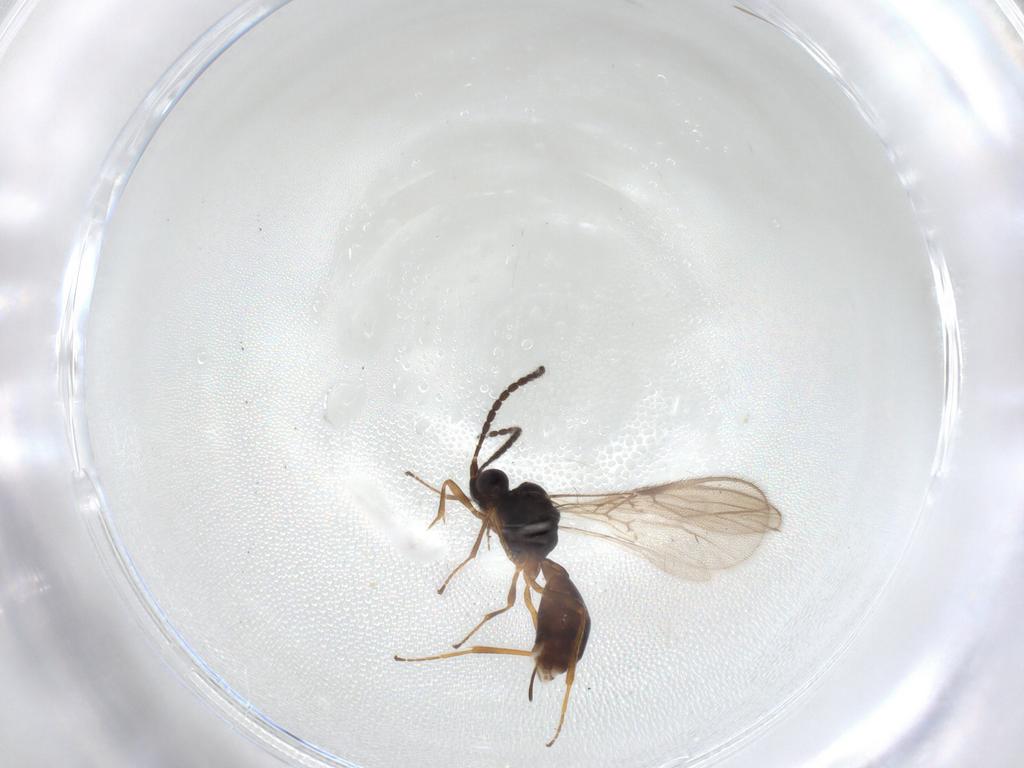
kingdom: Animalia
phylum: Arthropoda
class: Insecta
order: Hymenoptera
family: Braconidae
